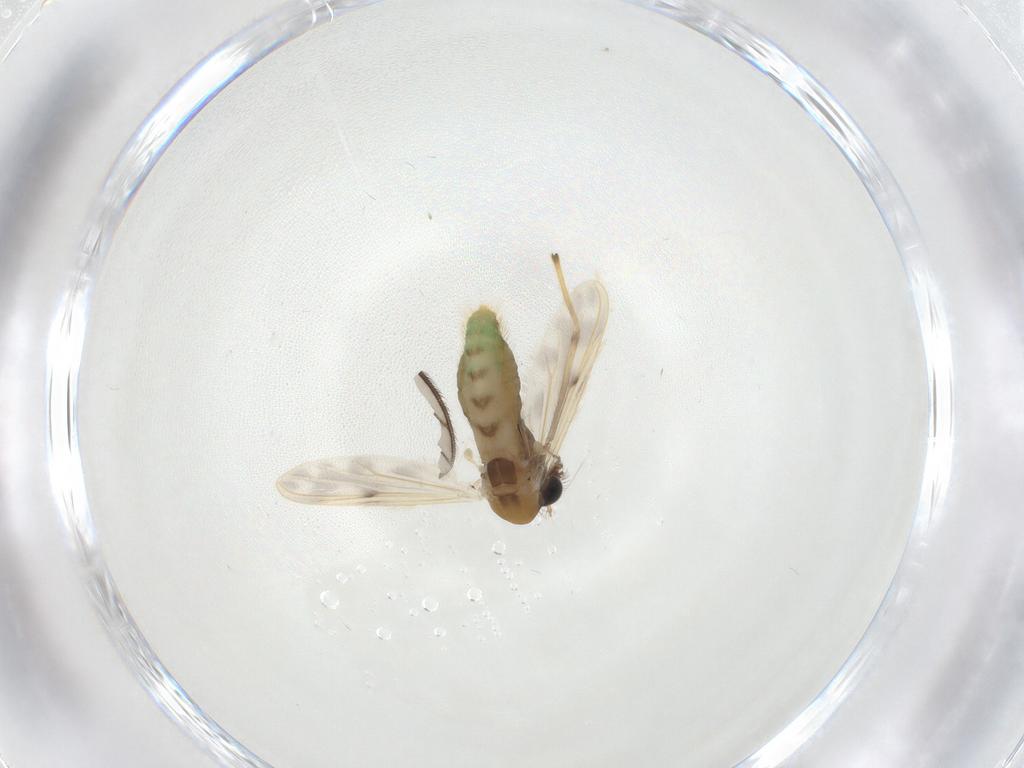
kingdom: Animalia
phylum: Arthropoda
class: Insecta
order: Diptera
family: Chironomidae
